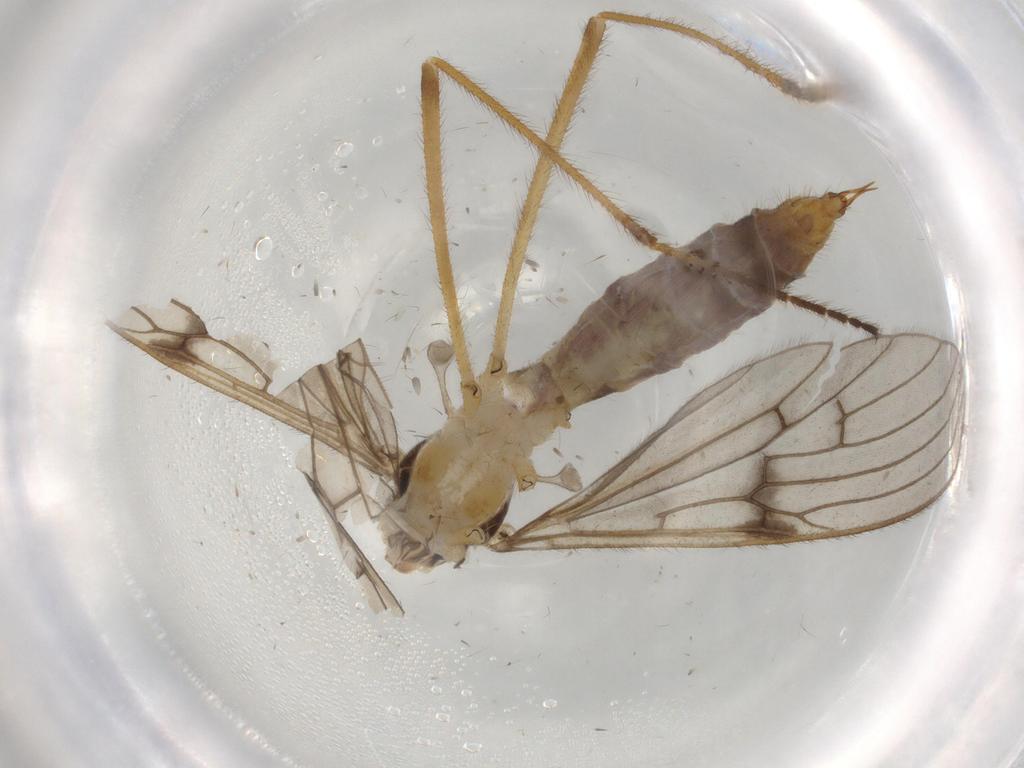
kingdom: Animalia
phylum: Arthropoda
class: Insecta
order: Diptera
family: Limoniidae
